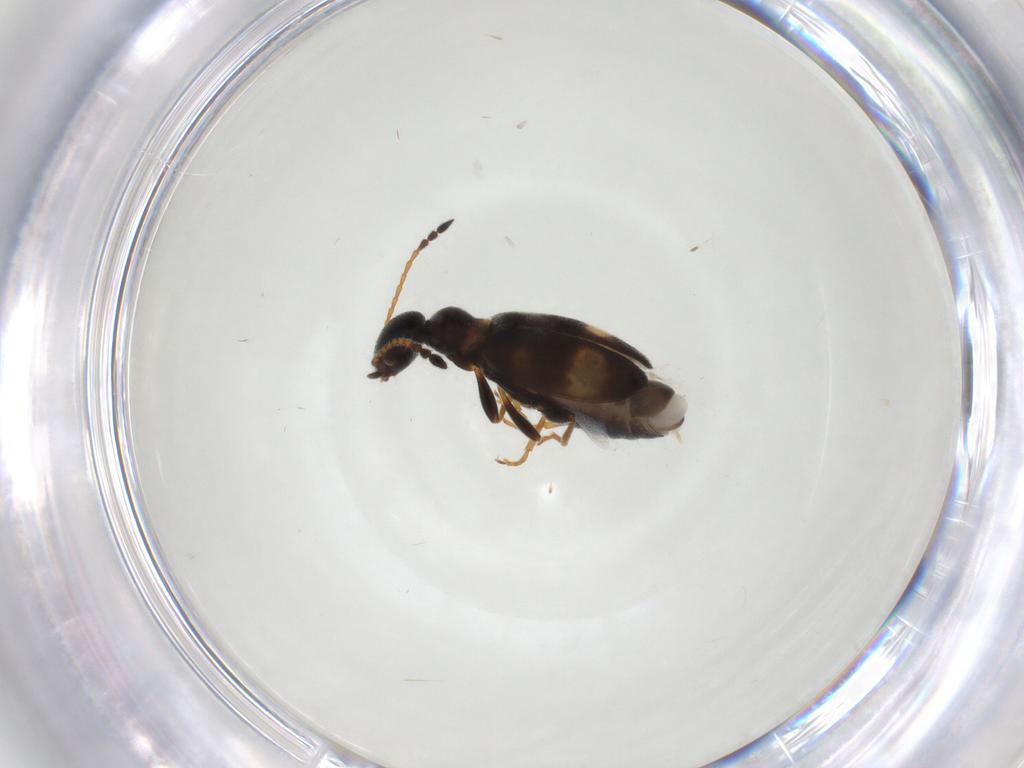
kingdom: Animalia
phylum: Arthropoda
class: Insecta
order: Coleoptera
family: Anthicidae
